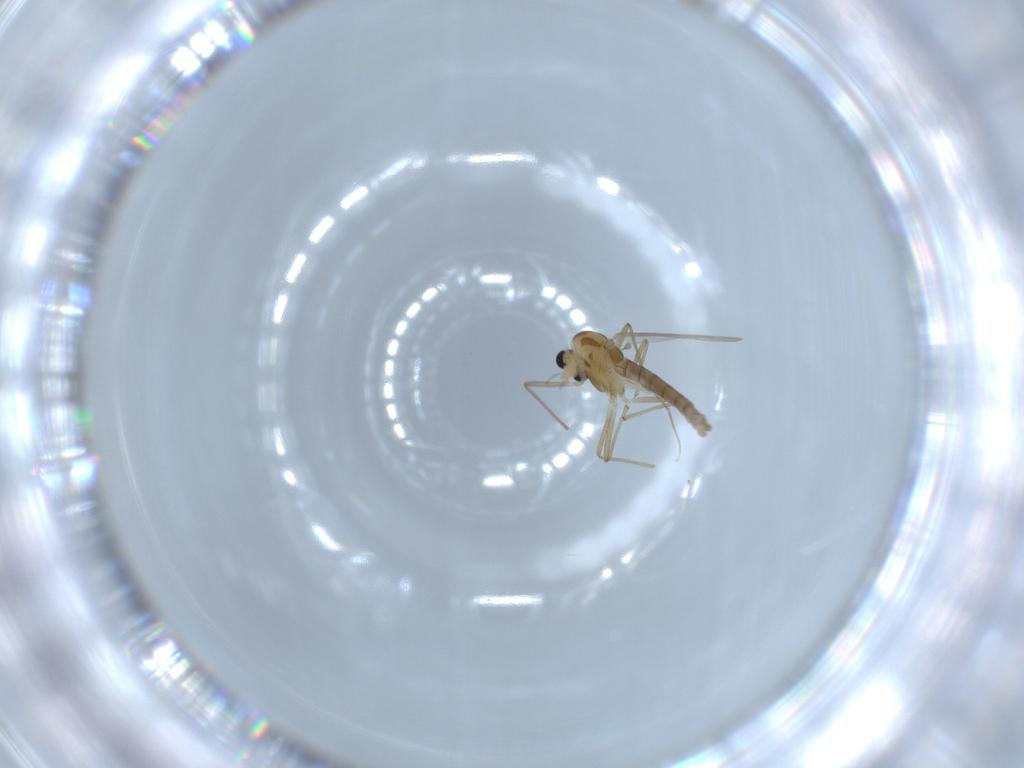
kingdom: Animalia
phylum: Arthropoda
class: Insecta
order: Diptera
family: Chironomidae
